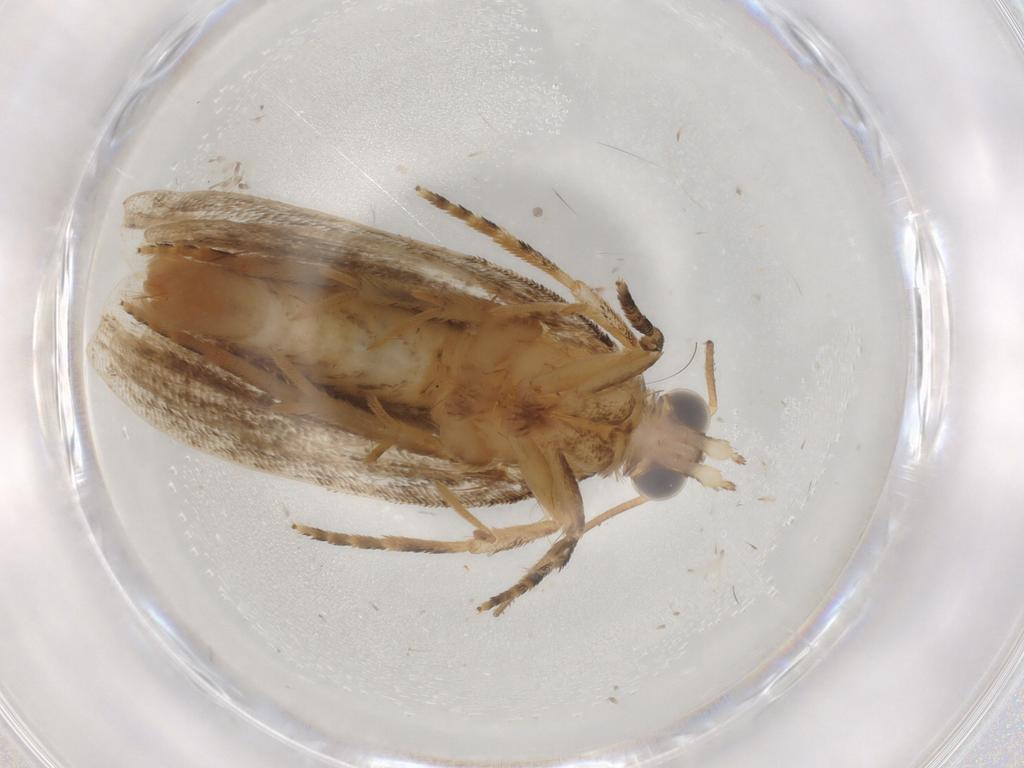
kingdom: Animalia
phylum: Arthropoda
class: Insecta
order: Lepidoptera
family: Tortricidae
